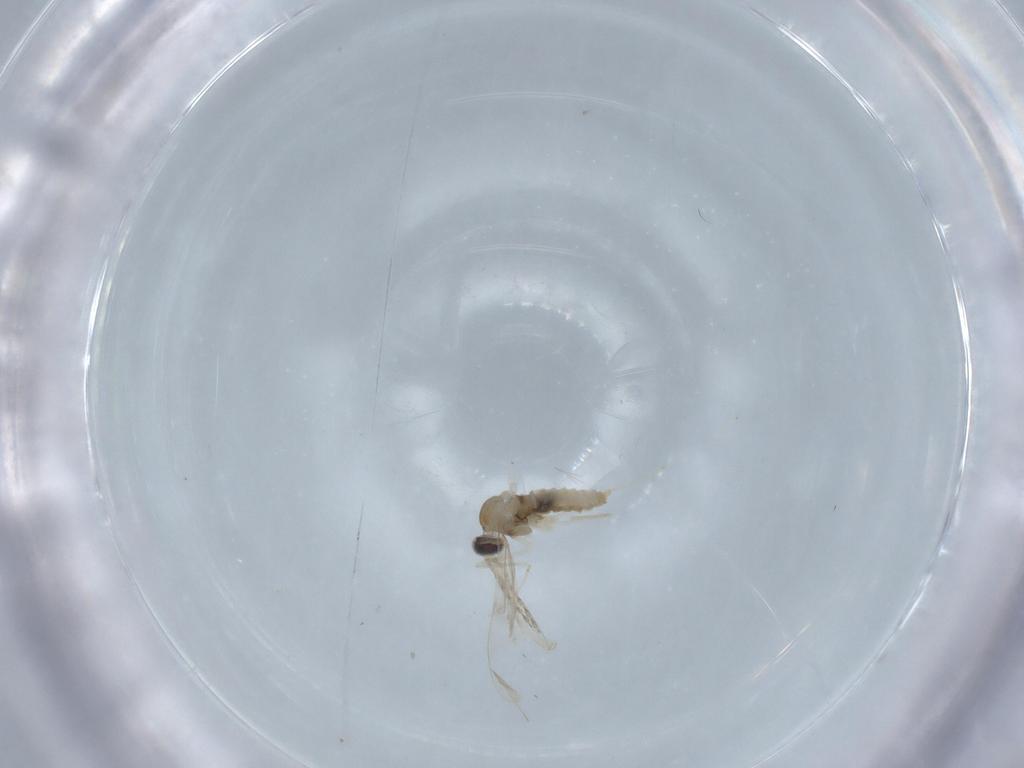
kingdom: Animalia
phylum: Arthropoda
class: Insecta
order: Diptera
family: Cecidomyiidae
